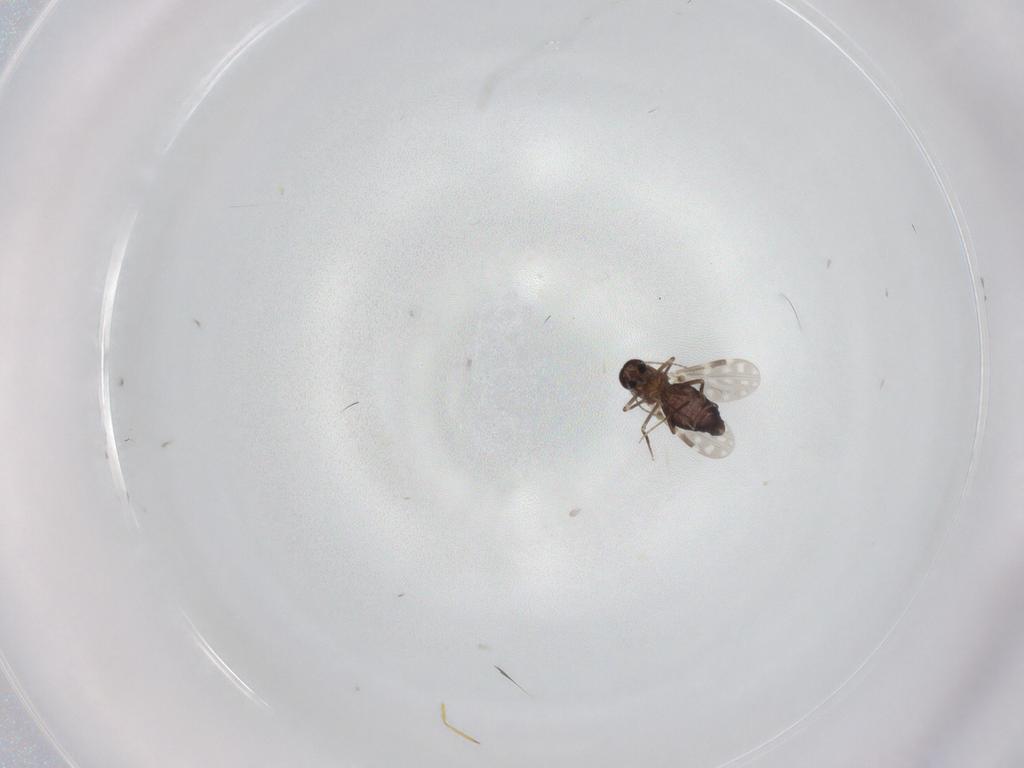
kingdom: Animalia
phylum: Arthropoda
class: Insecta
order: Diptera
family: Ceratopogonidae
